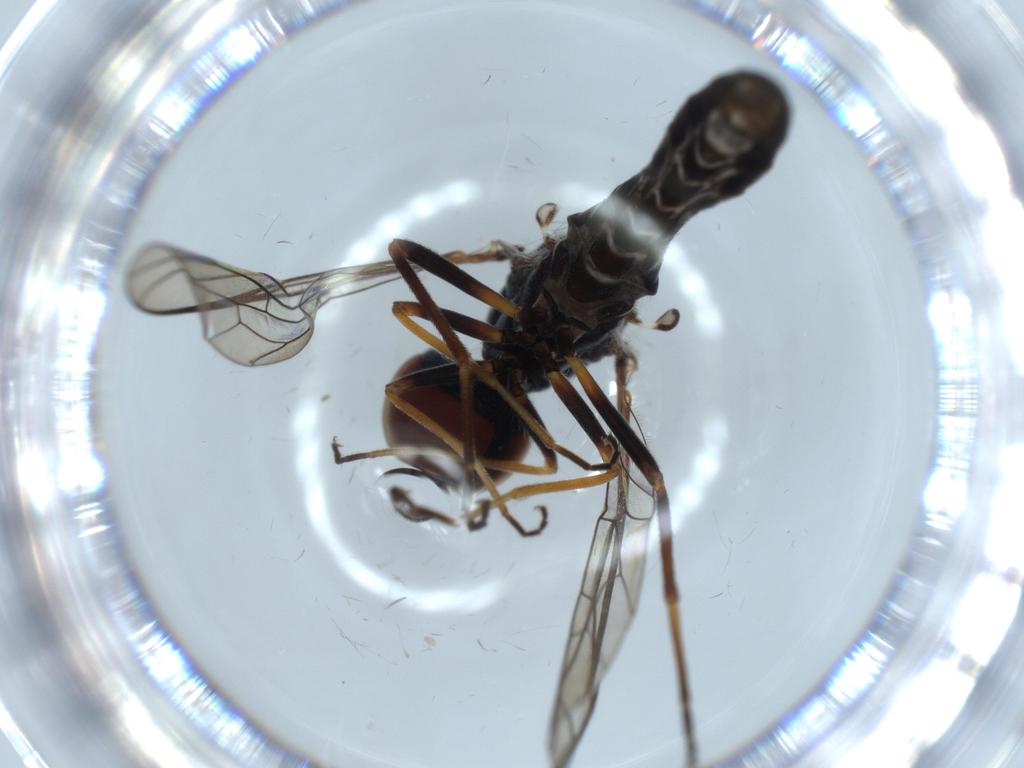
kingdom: Animalia
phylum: Arthropoda
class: Insecta
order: Diptera
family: Bombyliidae
